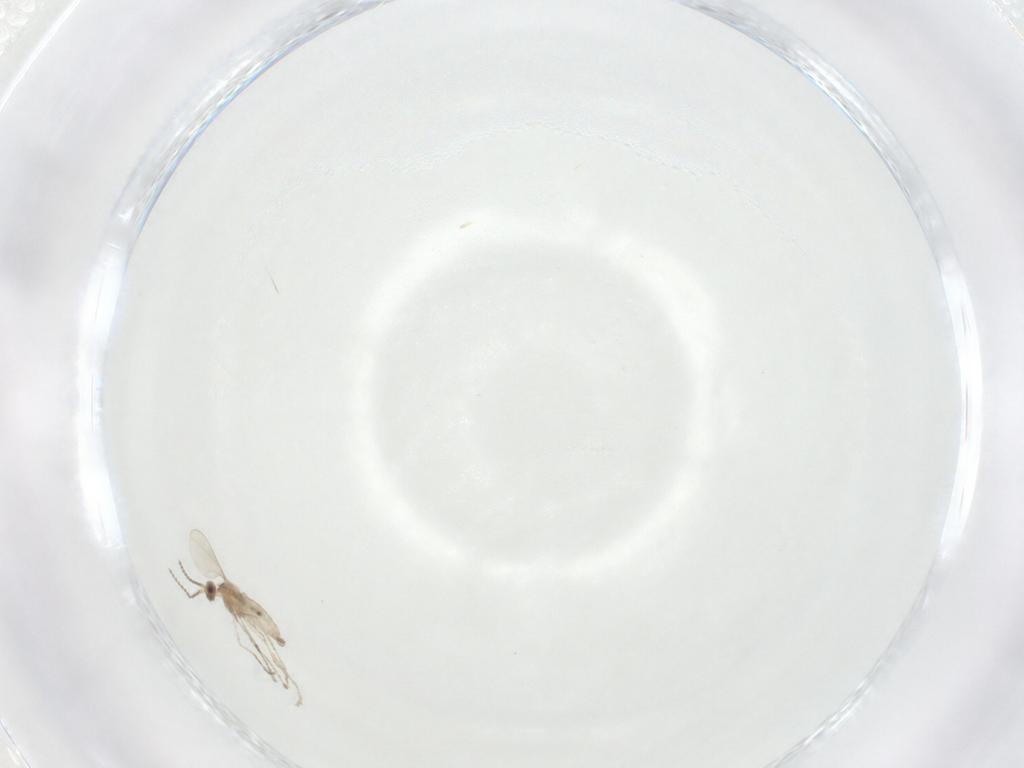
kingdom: Animalia
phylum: Arthropoda
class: Insecta
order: Diptera
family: Cecidomyiidae
